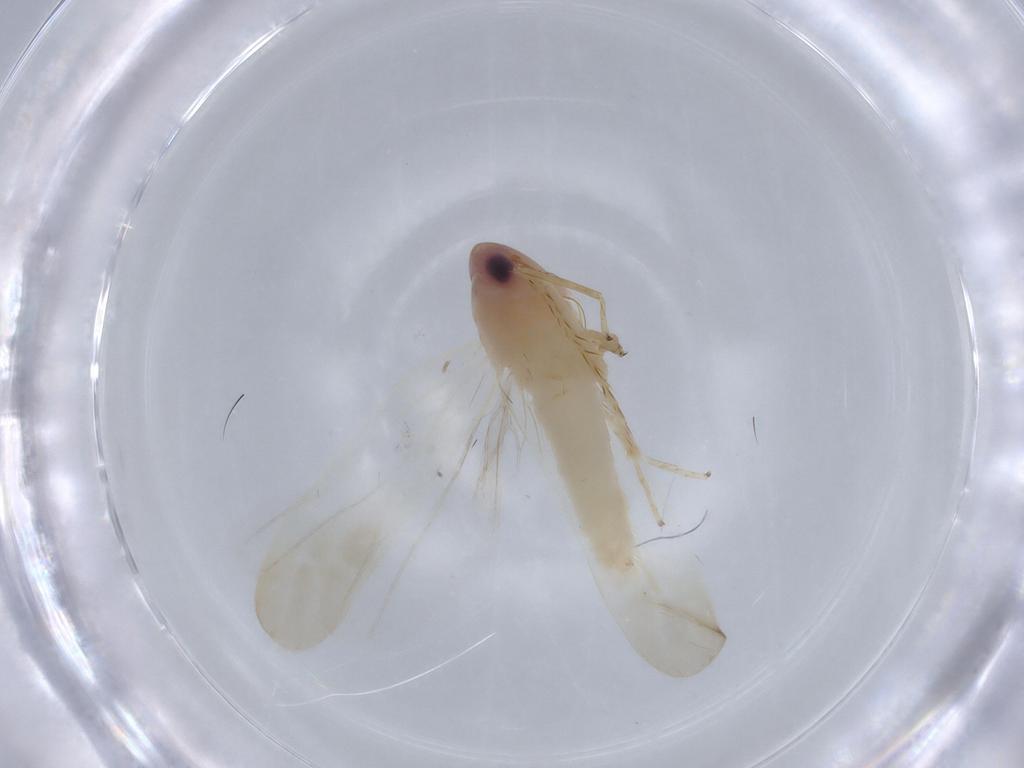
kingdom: Animalia
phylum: Arthropoda
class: Insecta
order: Hemiptera
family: Cicadellidae
